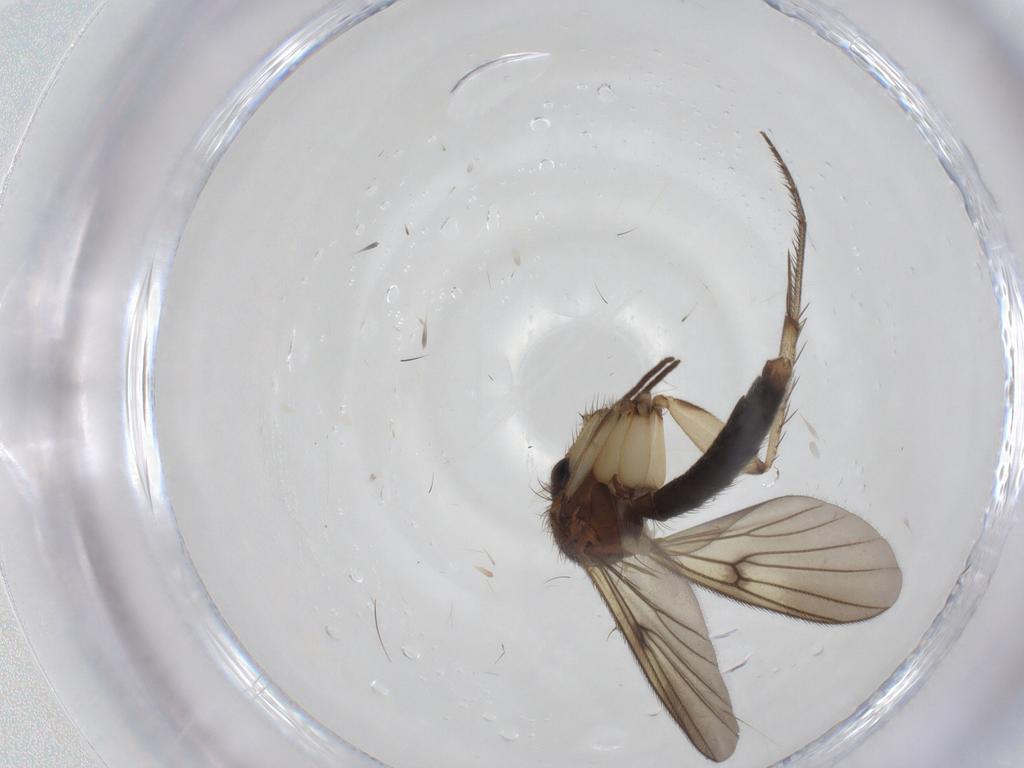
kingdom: Animalia
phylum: Arthropoda
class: Insecta
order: Diptera
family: Mycetophilidae
